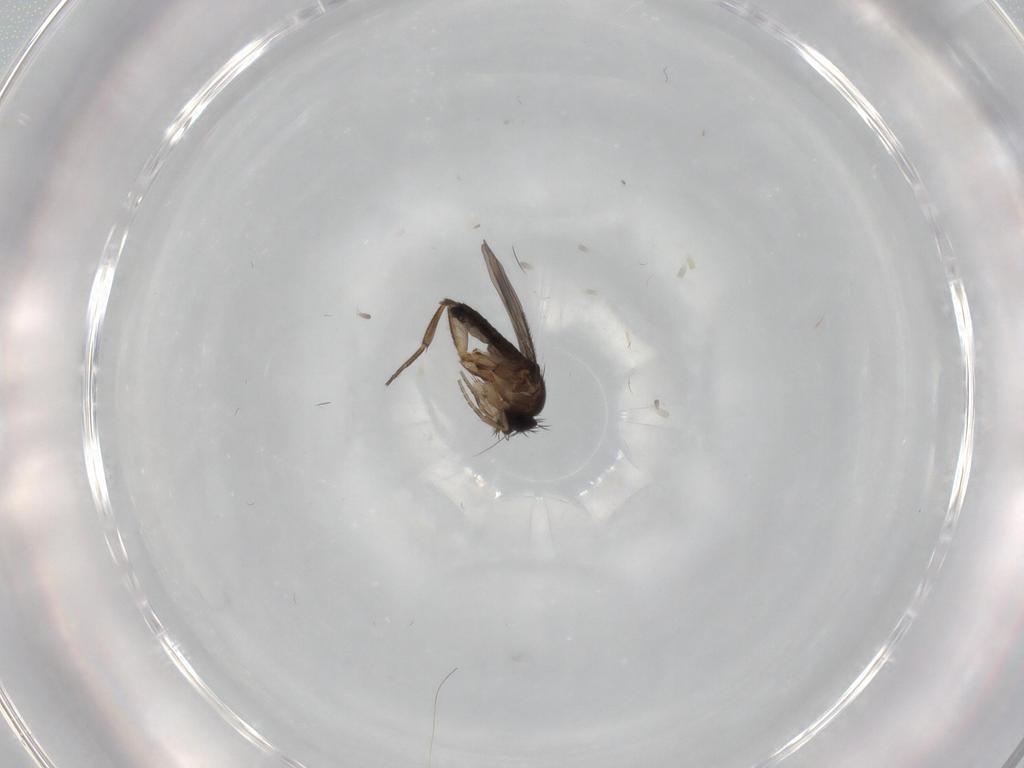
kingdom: Animalia
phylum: Arthropoda
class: Insecta
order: Diptera
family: Phoridae
